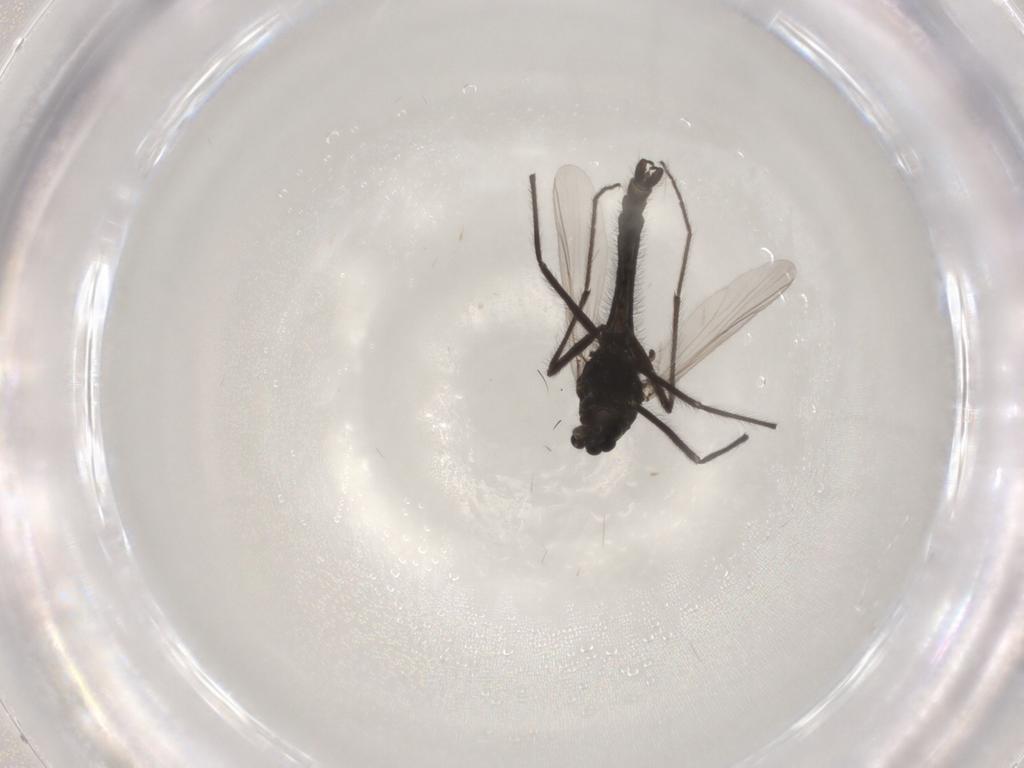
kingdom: Animalia
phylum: Arthropoda
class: Insecta
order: Diptera
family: Chironomidae
